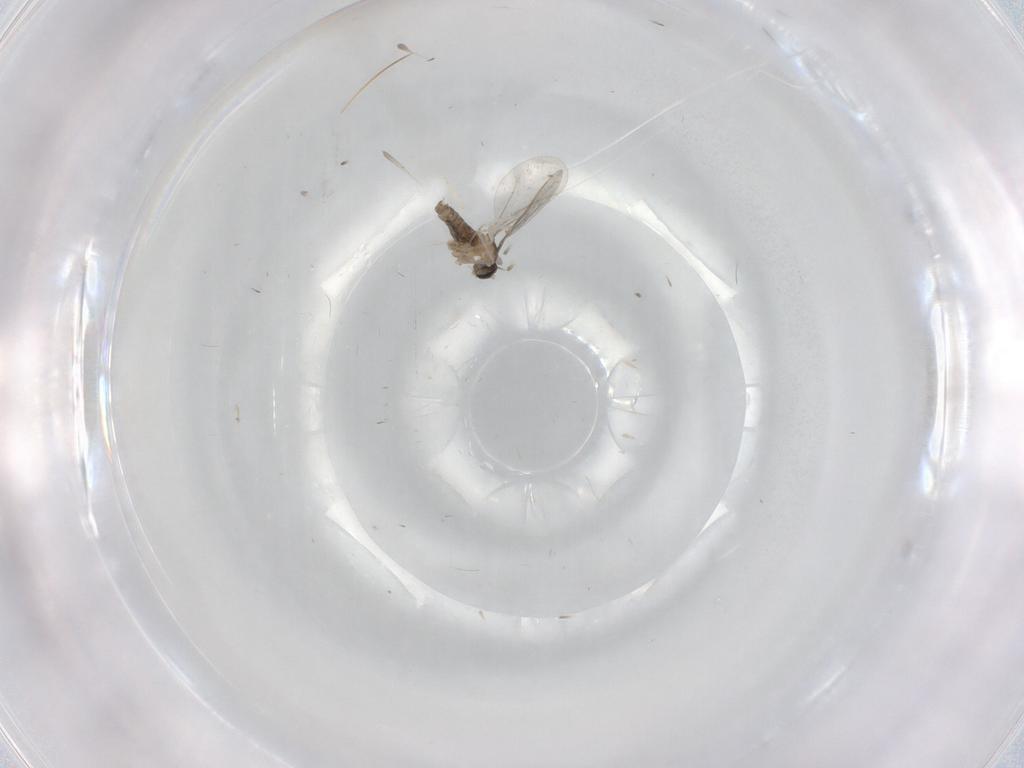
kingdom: Animalia
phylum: Arthropoda
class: Insecta
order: Diptera
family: Cecidomyiidae
